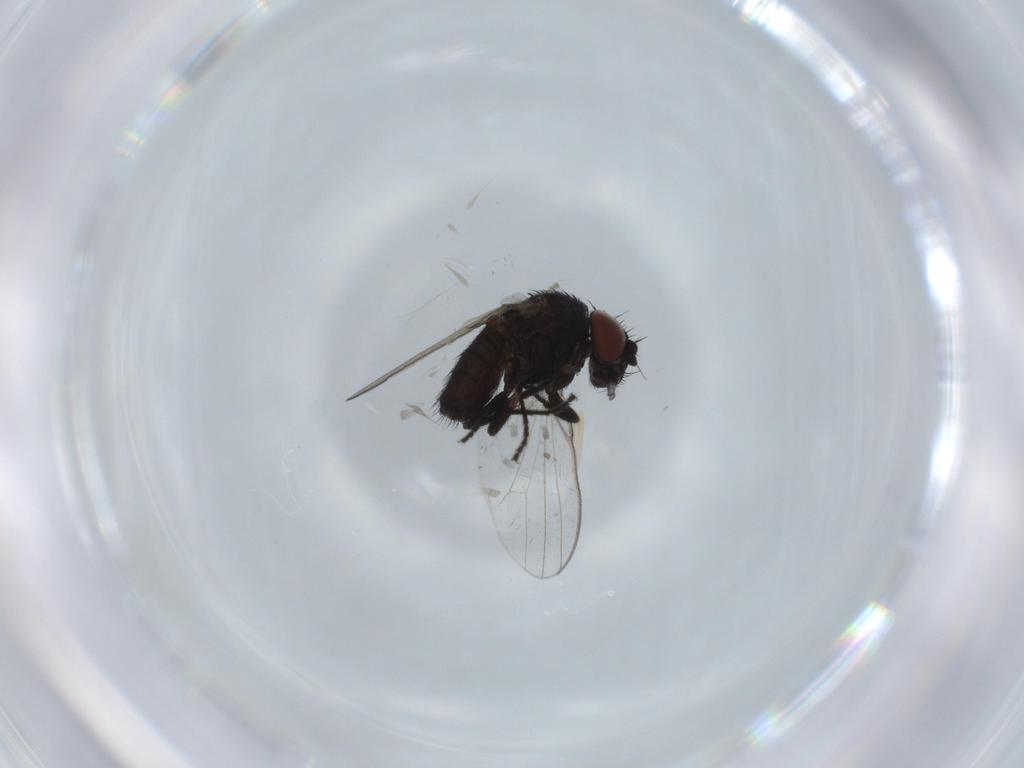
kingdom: Animalia
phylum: Arthropoda
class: Insecta
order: Diptera
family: Milichiidae
